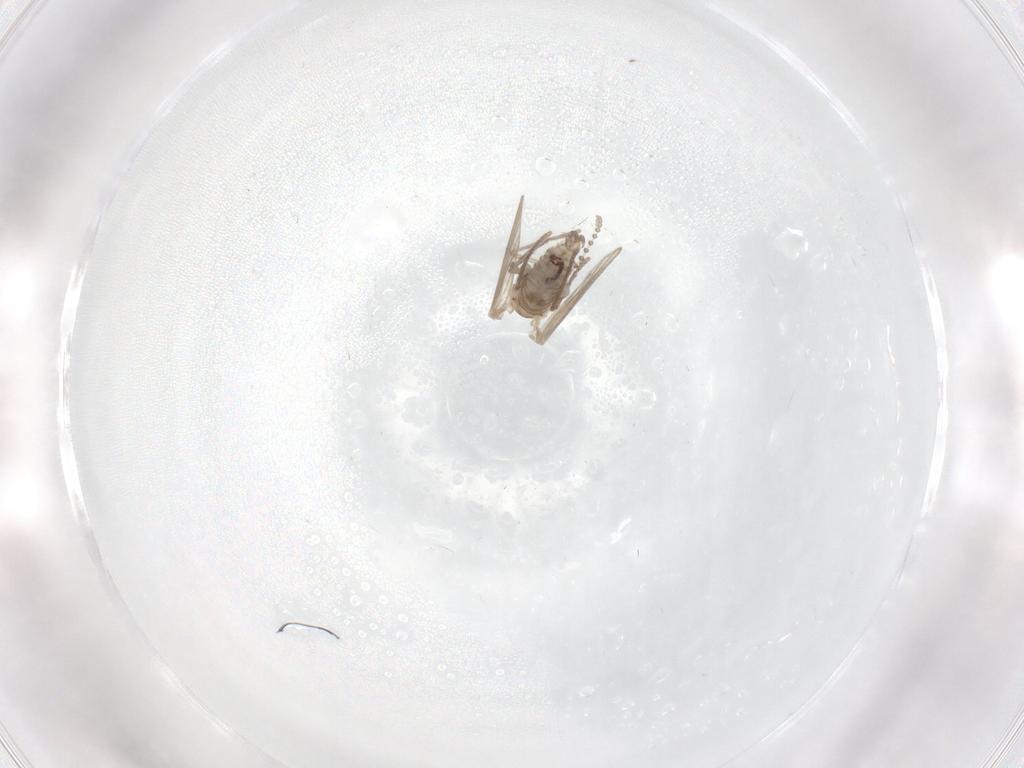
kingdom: Animalia
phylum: Arthropoda
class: Insecta
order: Diptera
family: Psychodidae
